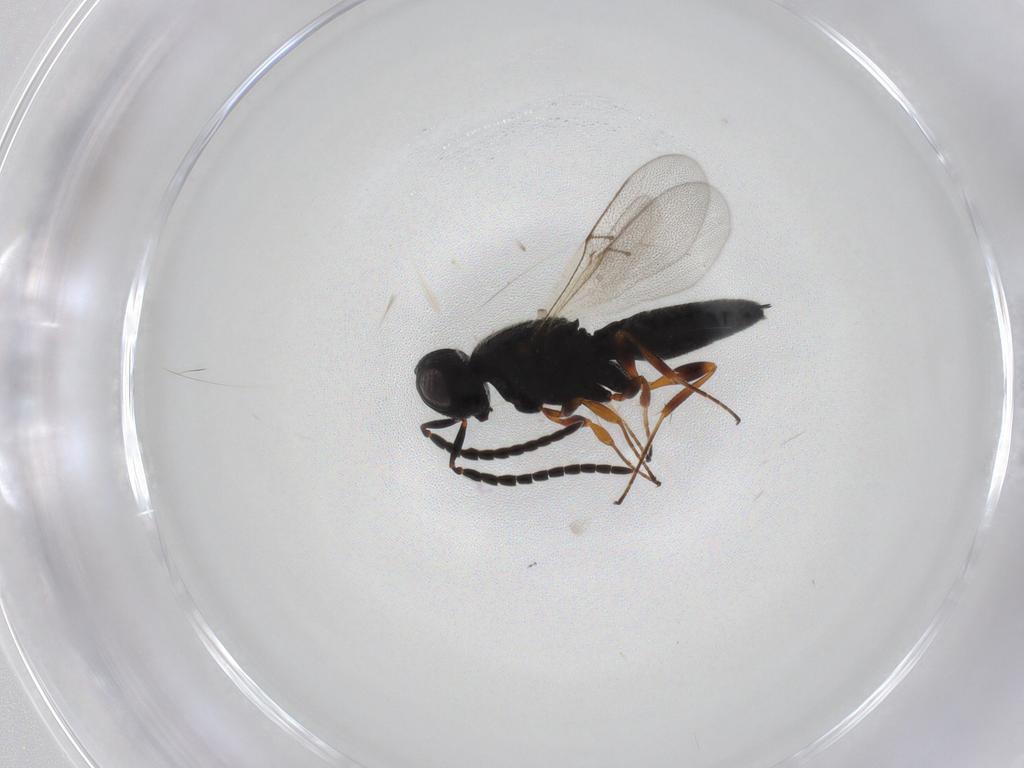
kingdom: Animalia
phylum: Arthropoda
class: Insecta
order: Hymenoptera
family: Scelionidae
